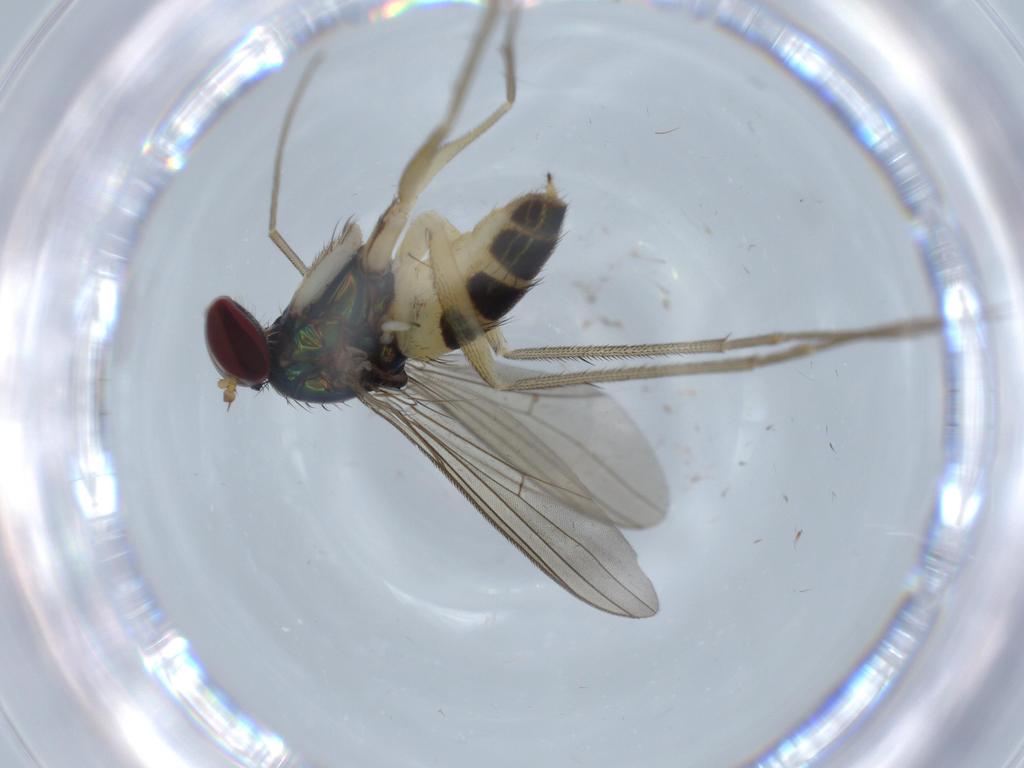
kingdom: Animalia
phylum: Arthropoda
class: Insecta
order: Diptera
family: Dolichopodidae
